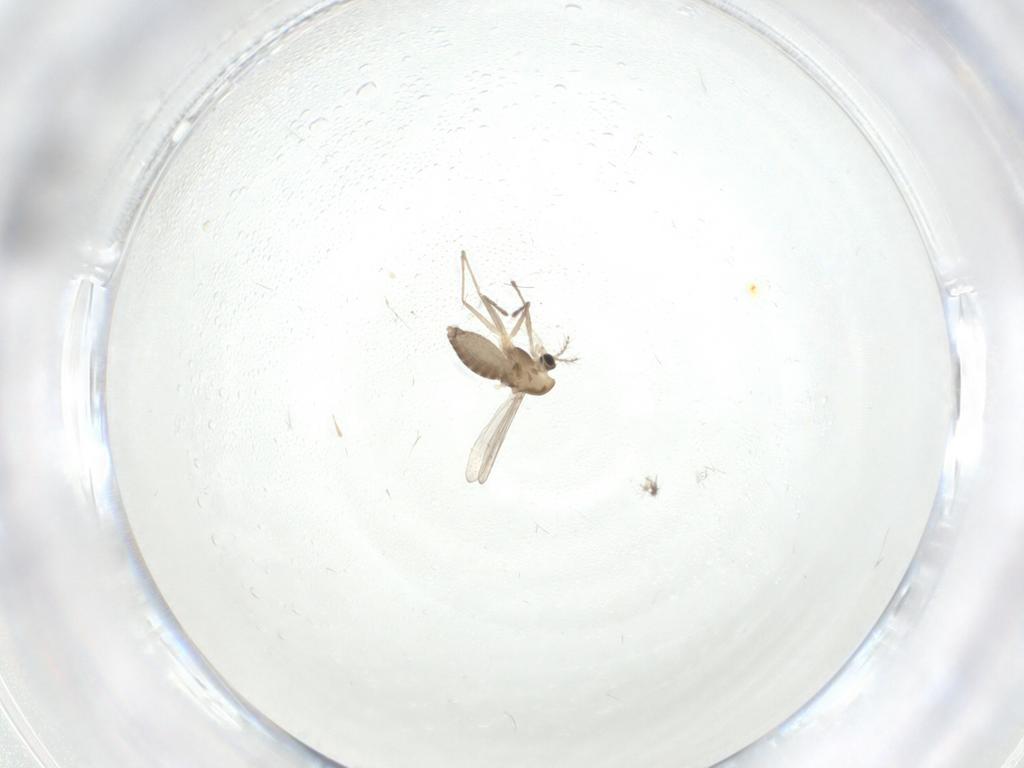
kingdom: Animalia
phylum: Arthropoda
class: Insecta
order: Diptera
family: Chironomidae
